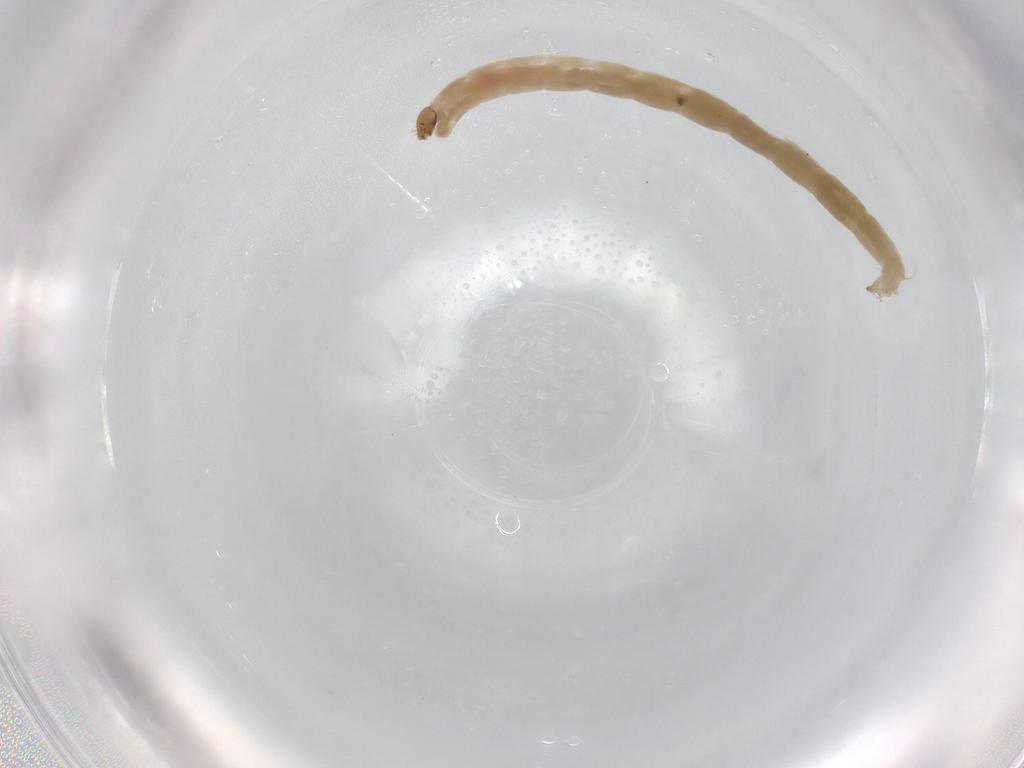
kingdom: Animalia
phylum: Arthropoda
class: Insecta
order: Diptera
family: Chironomidae
